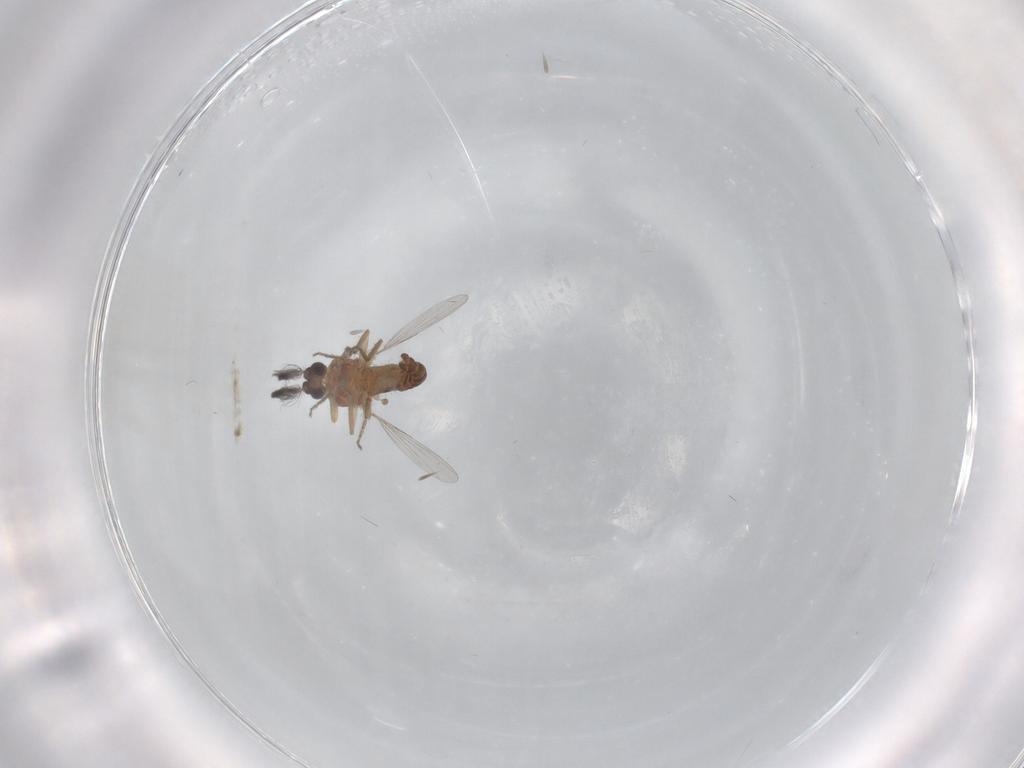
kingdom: Animalia
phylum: Arthropoda
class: Insecta
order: Diptera
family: Ceratopogonidae
